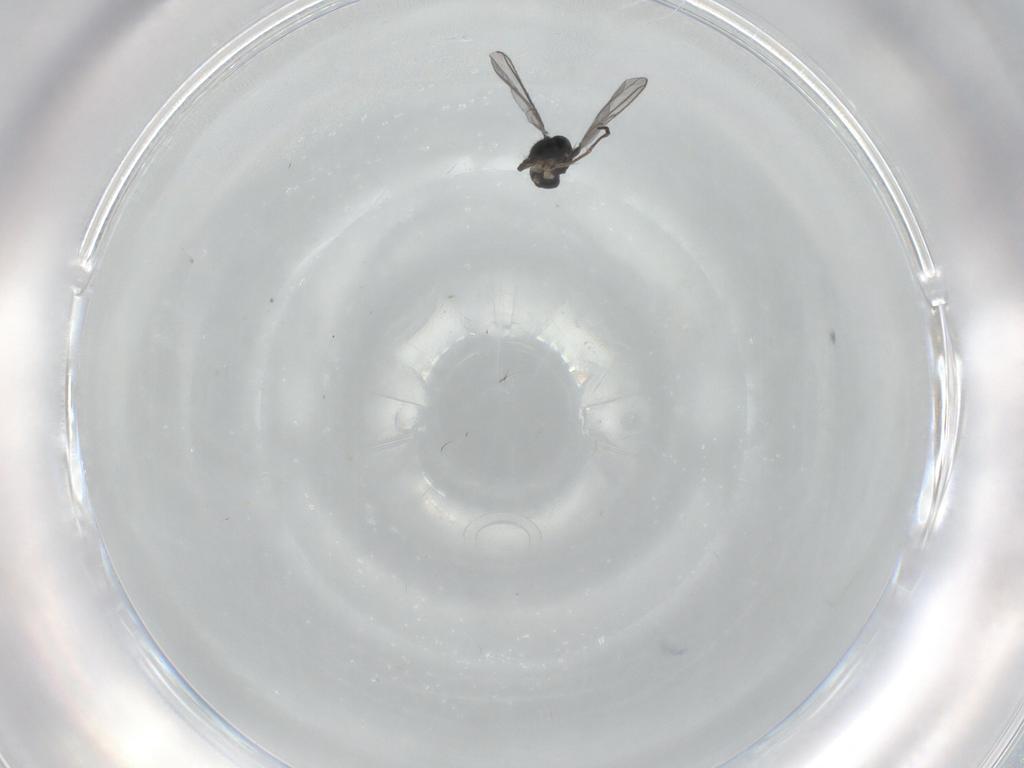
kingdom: Animalia
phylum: Arthropoda
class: Insecta
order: Diptera
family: Sciaridae
